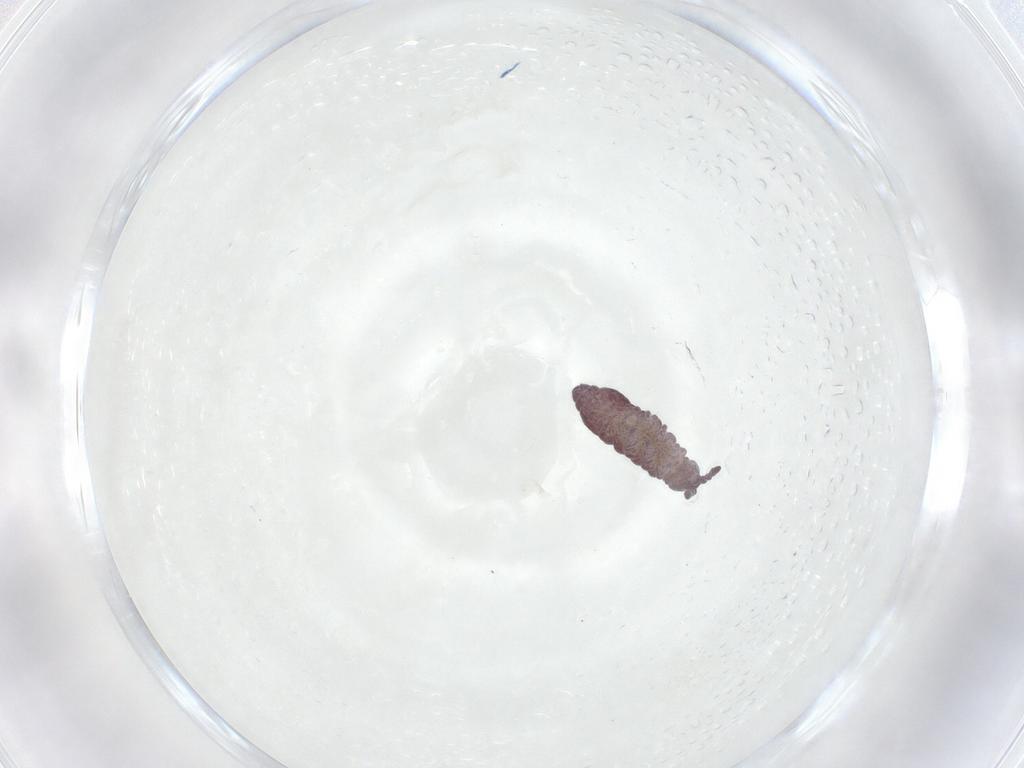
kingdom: Animalia
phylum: Arthropoda
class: Collembola
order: Poduromorpha
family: Hypogastruridae
